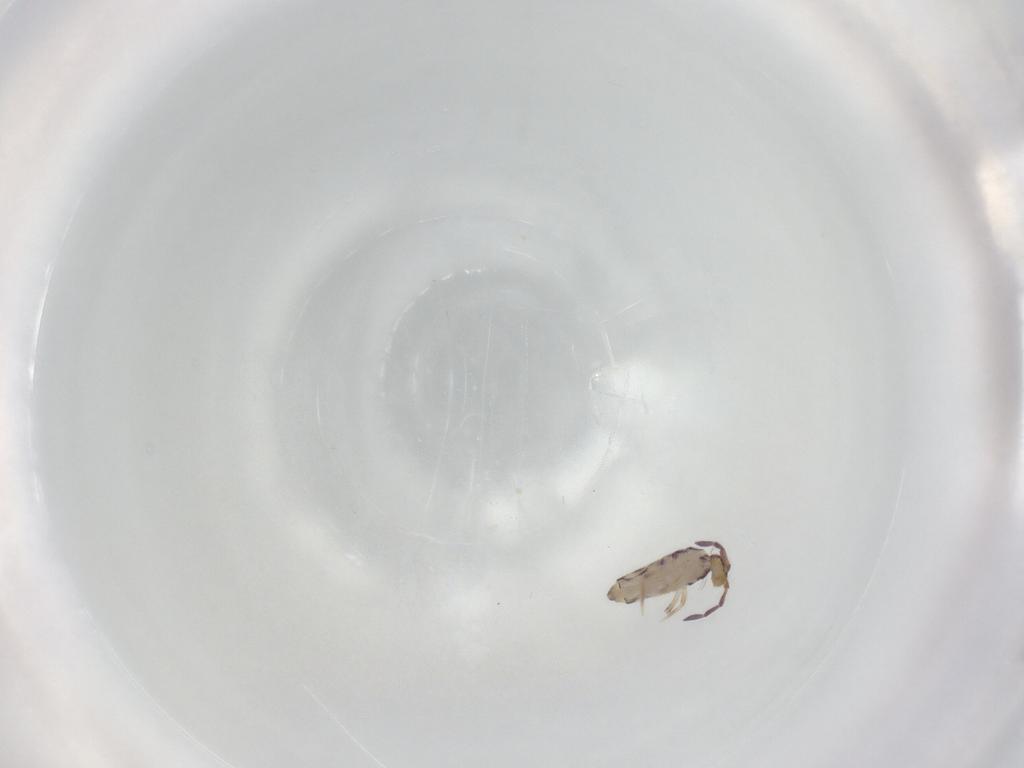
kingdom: Animalia
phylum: Arthropoda
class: Collembola
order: Entomobryomorpha
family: Entomobryidae
